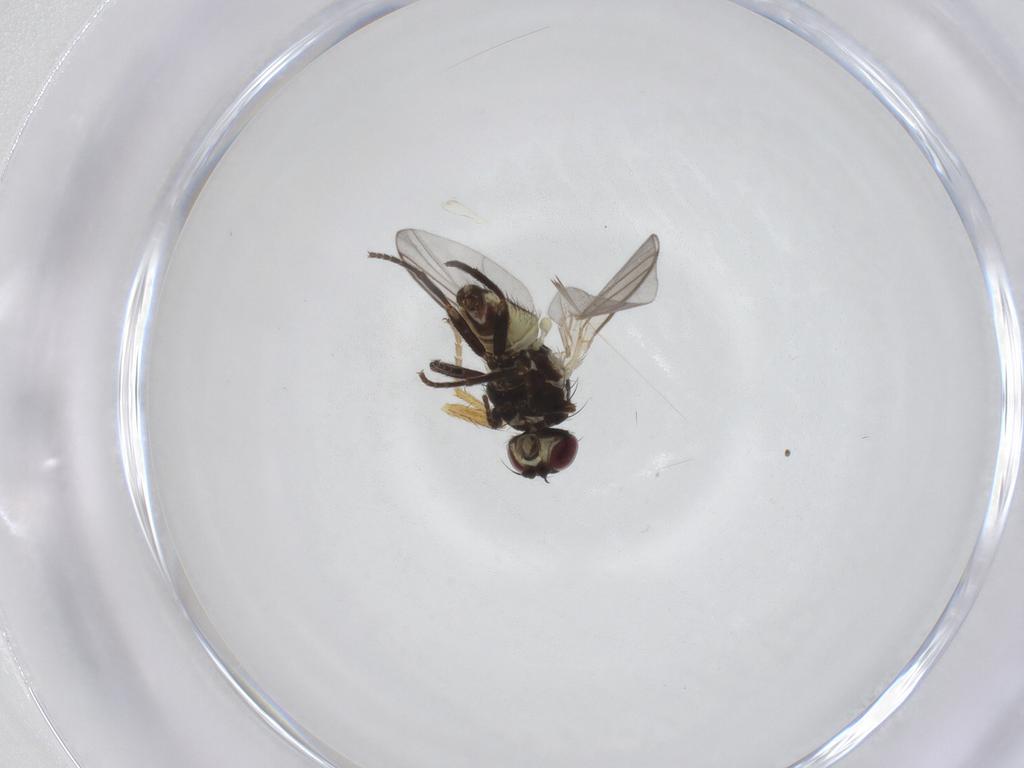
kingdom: Animalia
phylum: Arthropoda
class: Insecta
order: Diptera
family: Heleomyzidae
